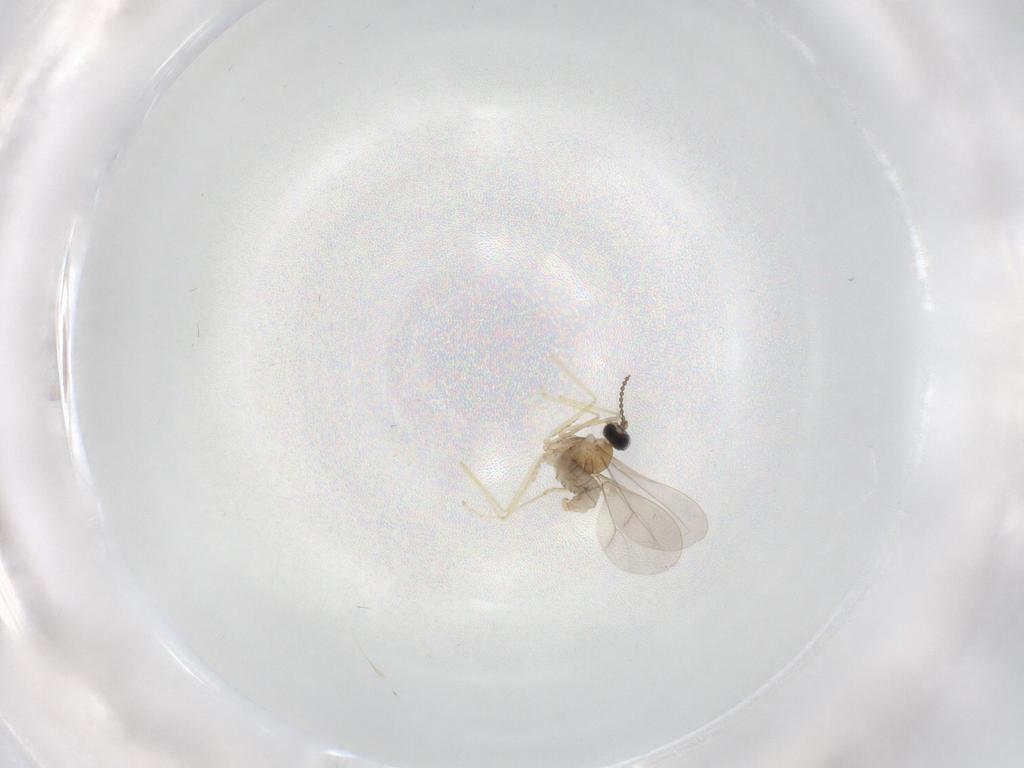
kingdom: Animalia
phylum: Arthropoda
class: Insecta
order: Diptera
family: Cecidomyiidae
